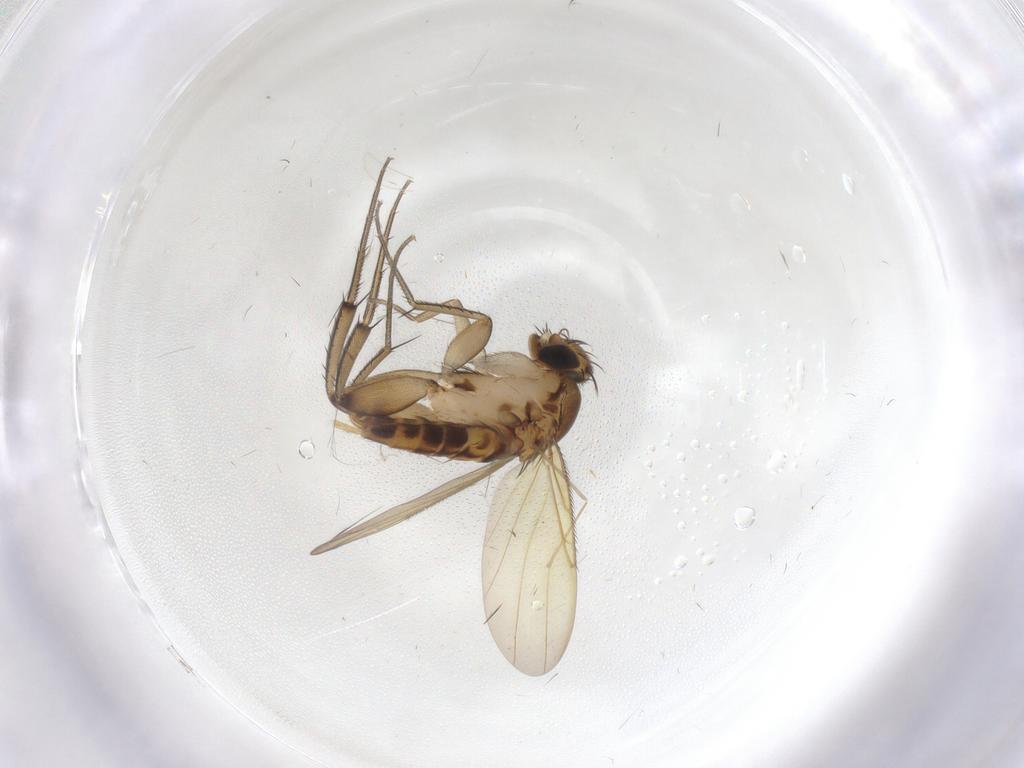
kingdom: Animalia
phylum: Arthropoda
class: Insecta
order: Diptera
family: Phoridae
